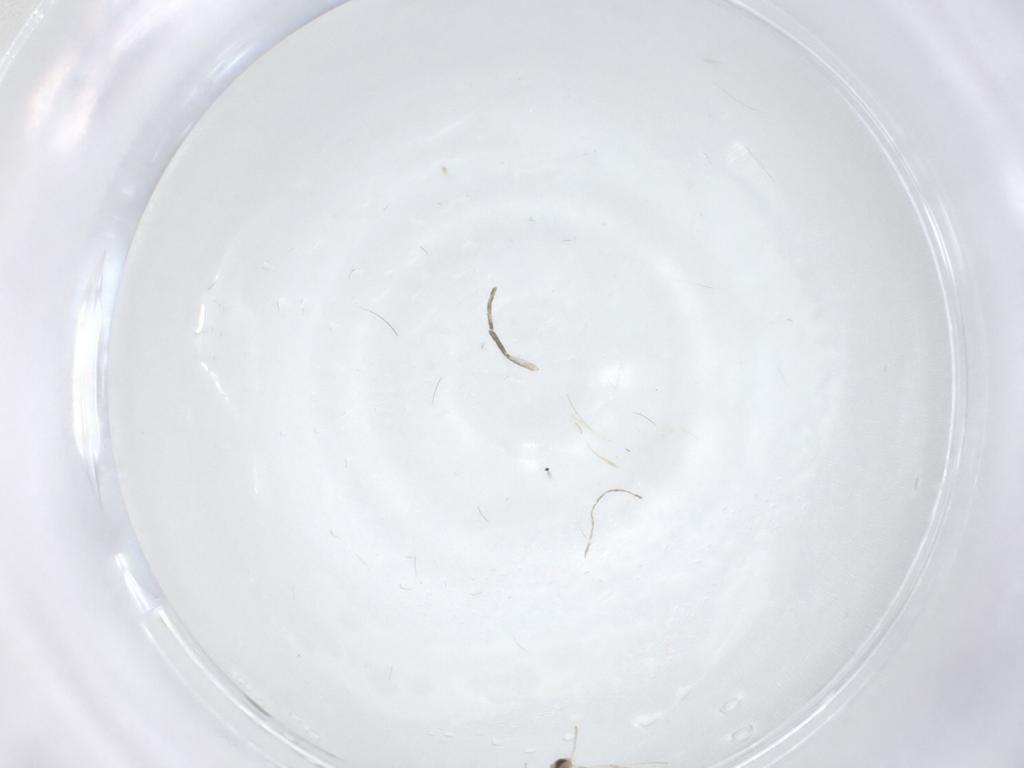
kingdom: Animalia
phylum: Arthropoda
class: Insecta
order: Diptera
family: Cecidomyiidae
